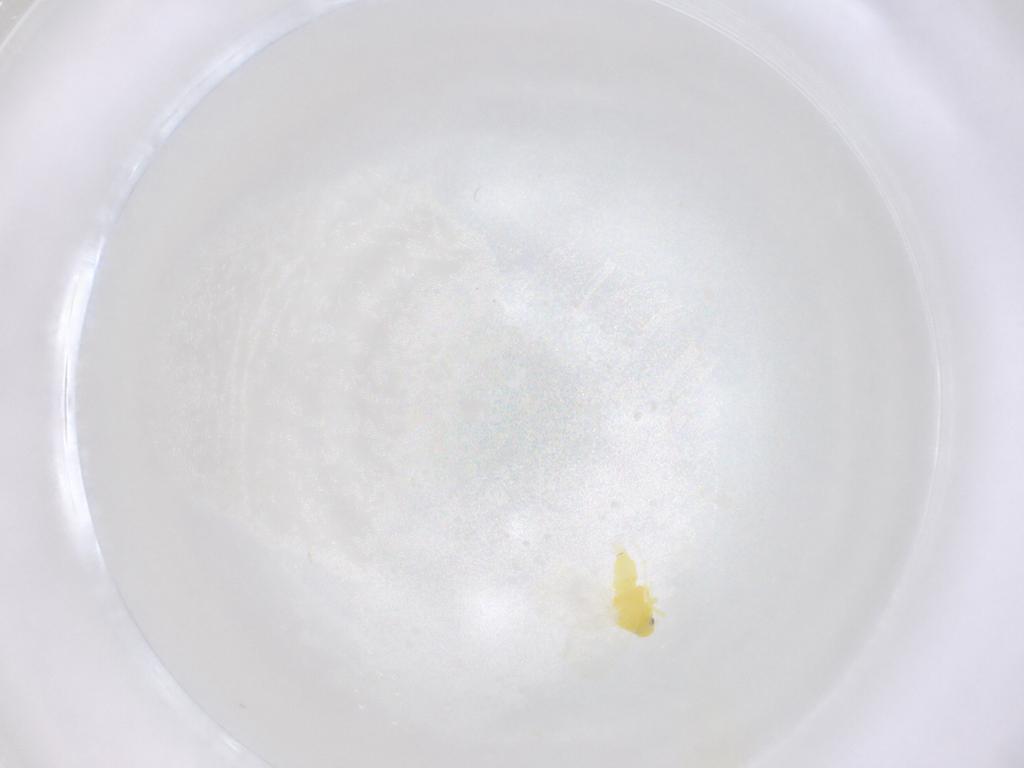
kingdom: Animalia
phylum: Arthropoda
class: Insecta
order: Hemiptera
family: Aleyrodidae
